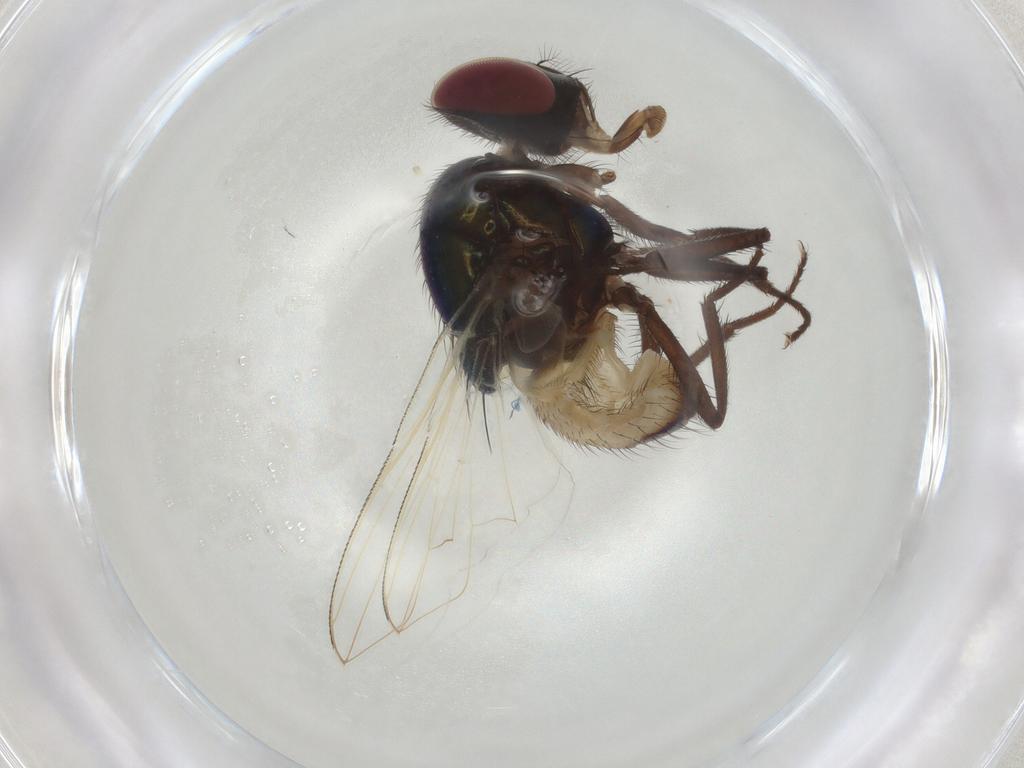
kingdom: Animalia
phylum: Arthropoda
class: Insecta
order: Diptera
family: Cecidomyiidae
